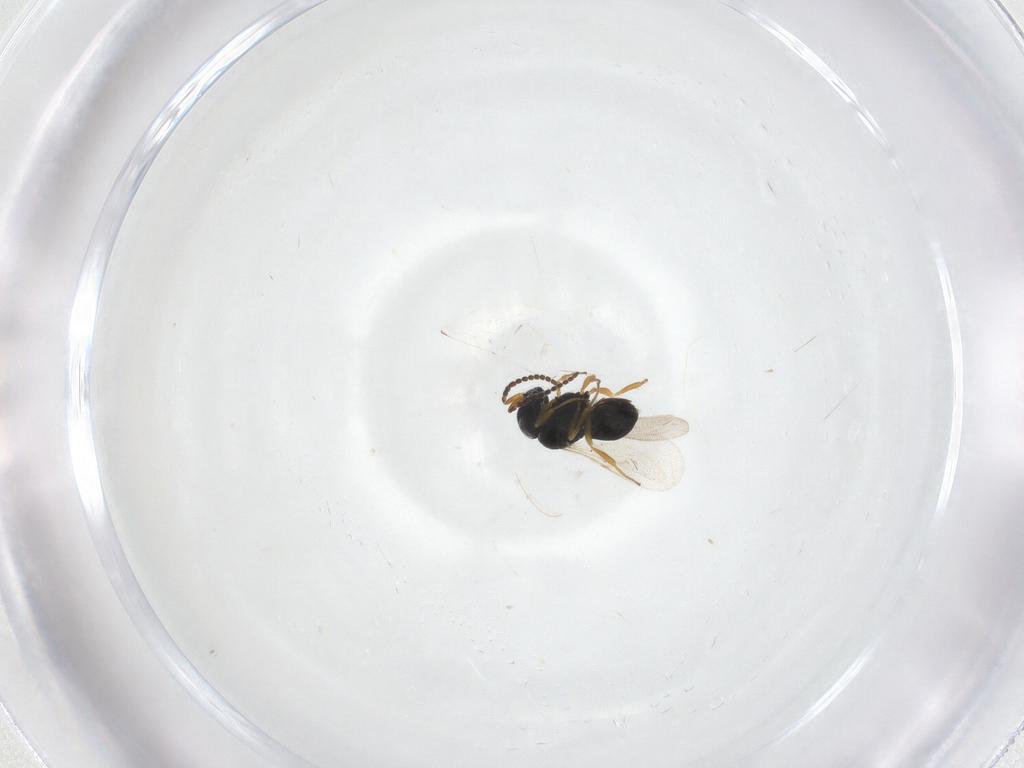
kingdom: Animalia
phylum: Arthropoda
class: Insecta
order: Hymenoptera
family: Scelionidae
